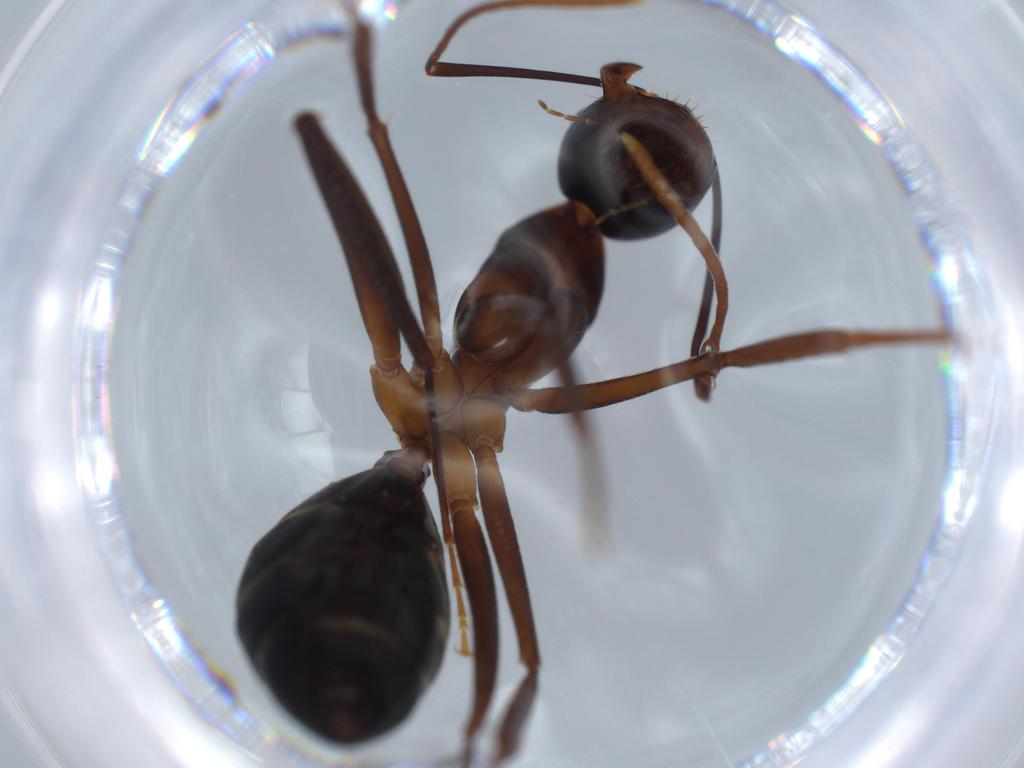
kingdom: Animalia
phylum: Arthropoda
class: Insecta
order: Hymenoptera
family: Formicidae
